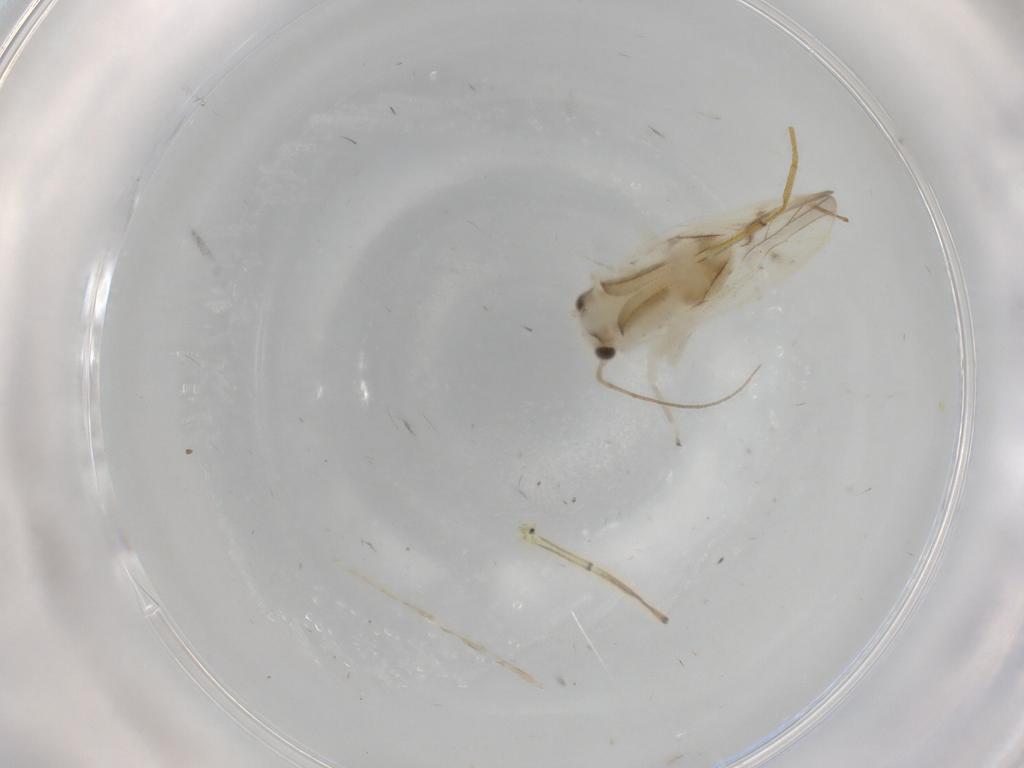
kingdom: Animalia
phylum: Arthropoda
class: Insecta
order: Psocodea
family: Caeciliusidae
